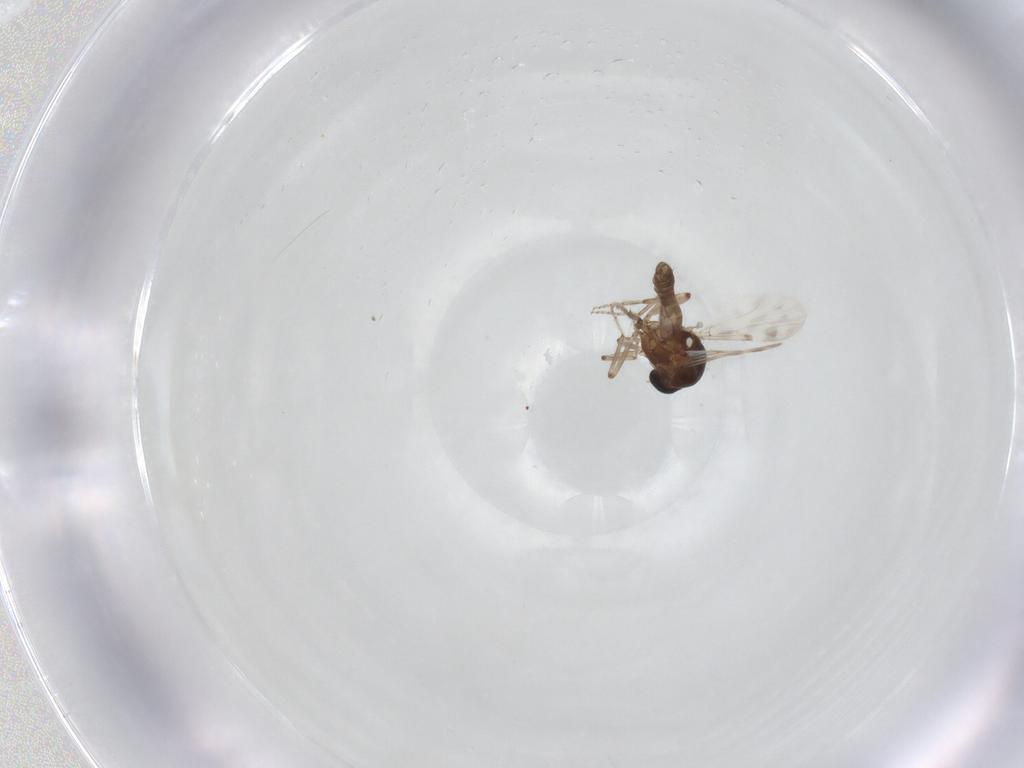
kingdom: Animalia
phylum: Arthropoda
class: Insecta
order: Diptera
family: Ceratopogonidae
